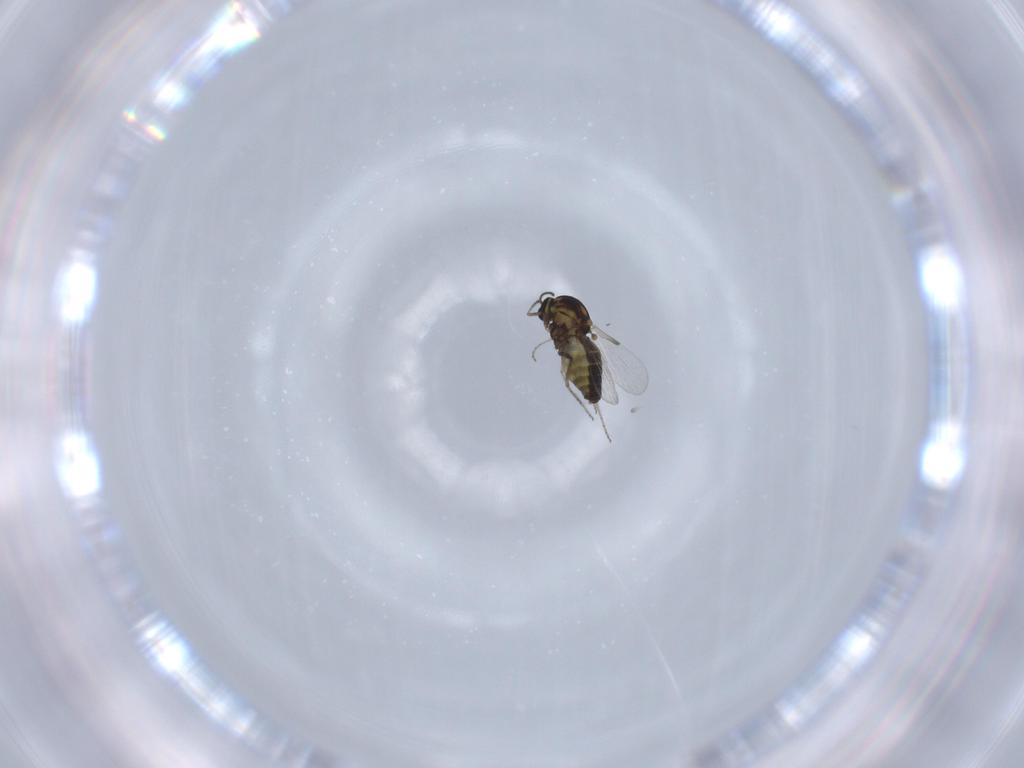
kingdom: Animalia
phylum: Arthropoda
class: Insecta
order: Diptera
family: Ceratopogonidae
